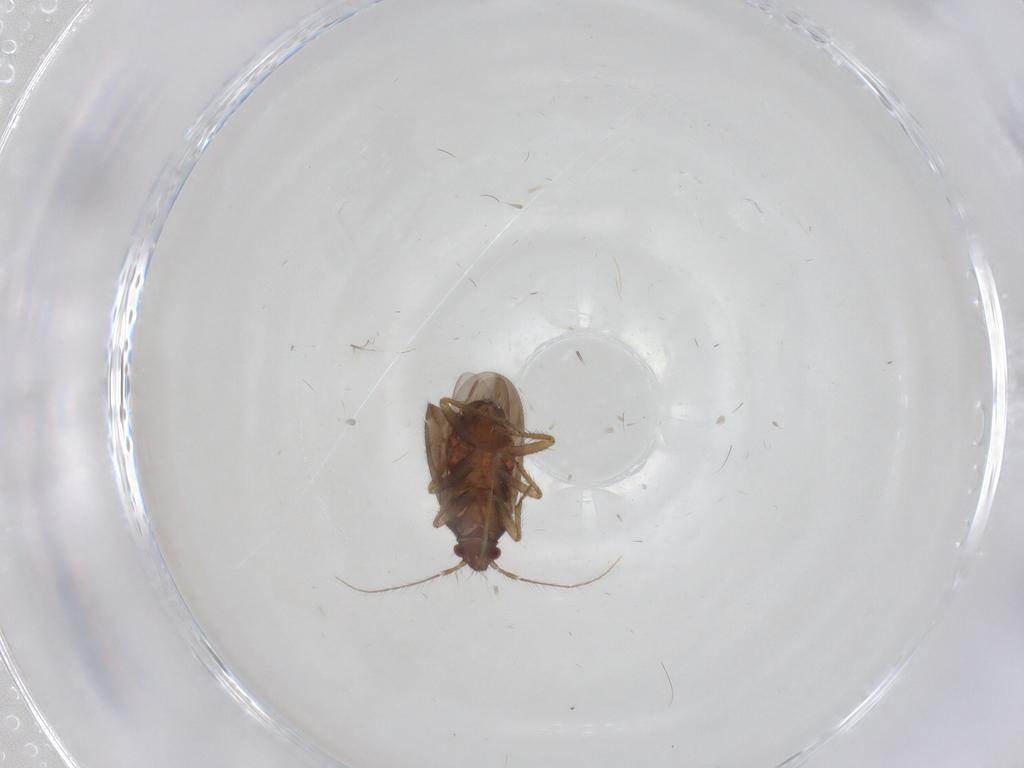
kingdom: Animalia
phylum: Arthropoda
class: Insecta
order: Hemiptera
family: Ceratocombidae
